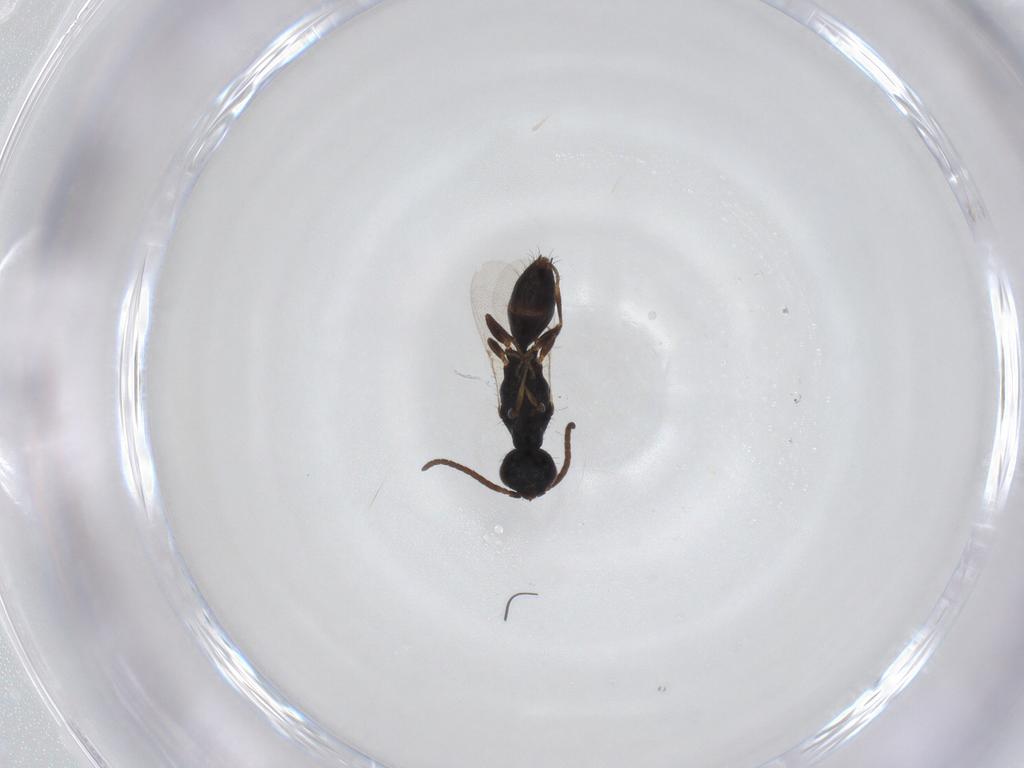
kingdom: Animalia
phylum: Arthropoda
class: Insecta
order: Hymenoptera
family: Bethylidae
